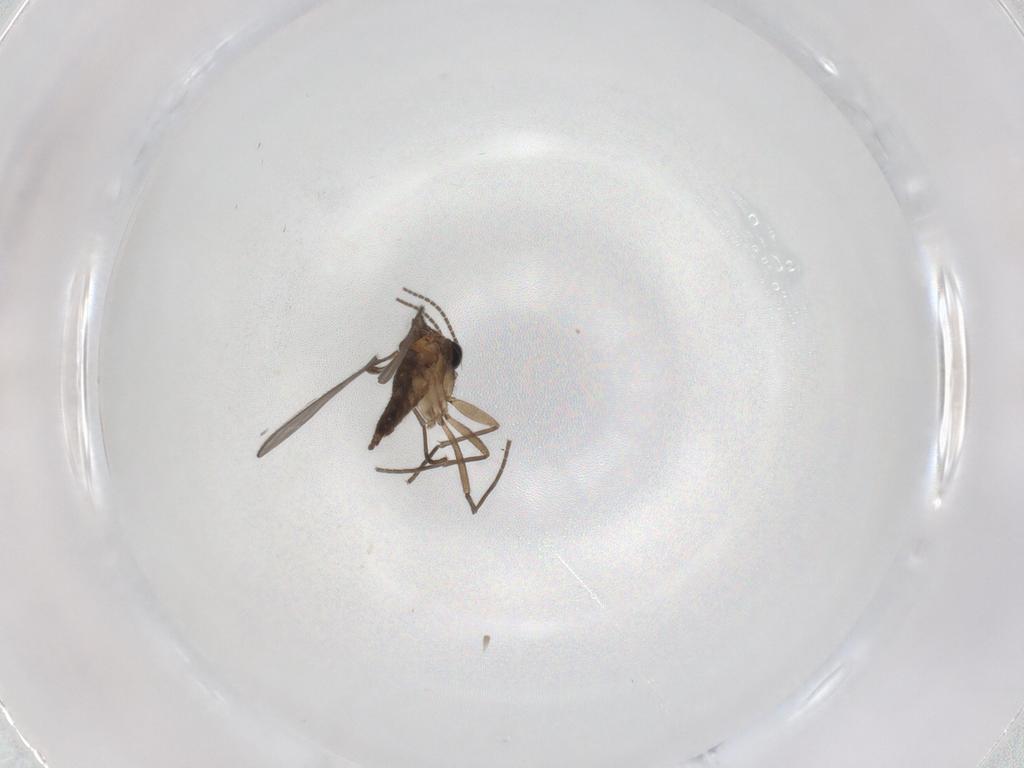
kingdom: Animalia
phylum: Arthropoda
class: Insecta
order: Diptera
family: Sciaridae
